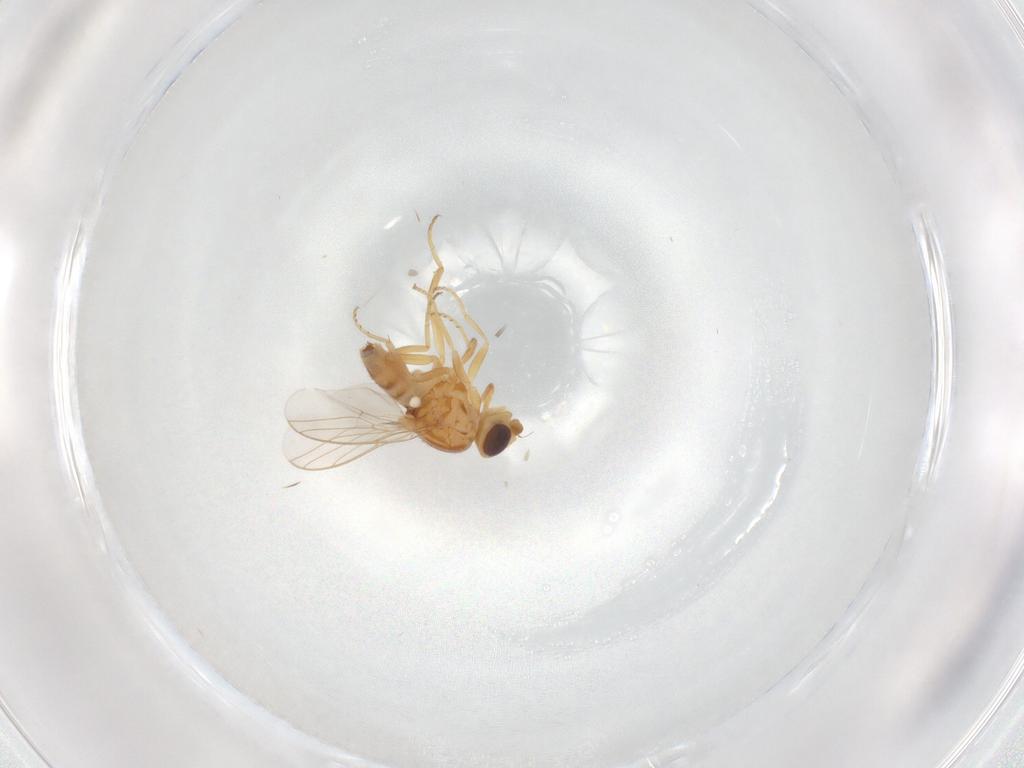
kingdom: Animalia
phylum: Arthropoda
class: Insecta
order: Diptera
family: Chloropidae
